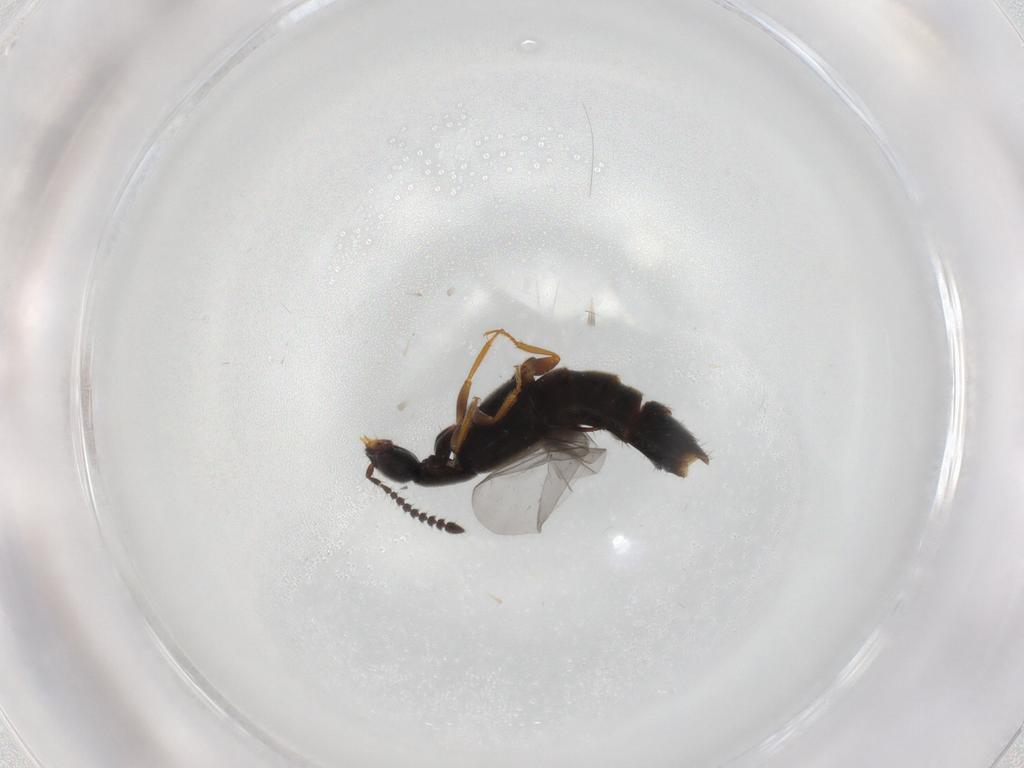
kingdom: Animalia
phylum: Arthropoda
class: Insecta
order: Coleoptera
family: Staphylinidae
